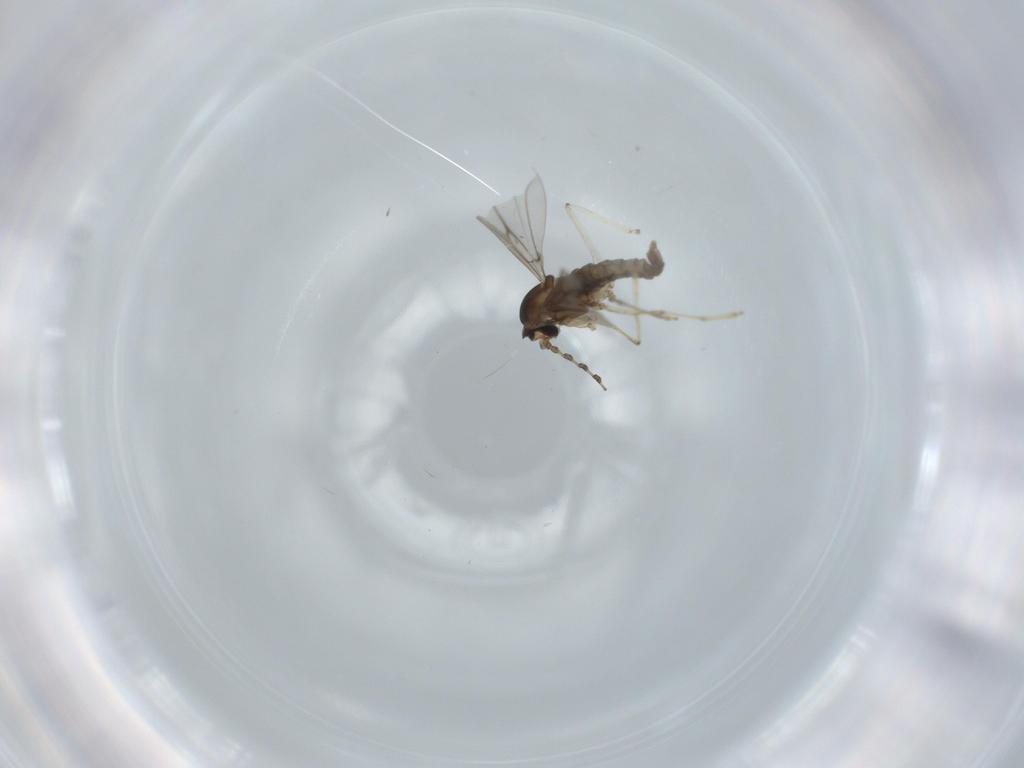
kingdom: Animalia
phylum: Arthropoda
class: Insecta
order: Diptera
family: Cecidomyiidae
